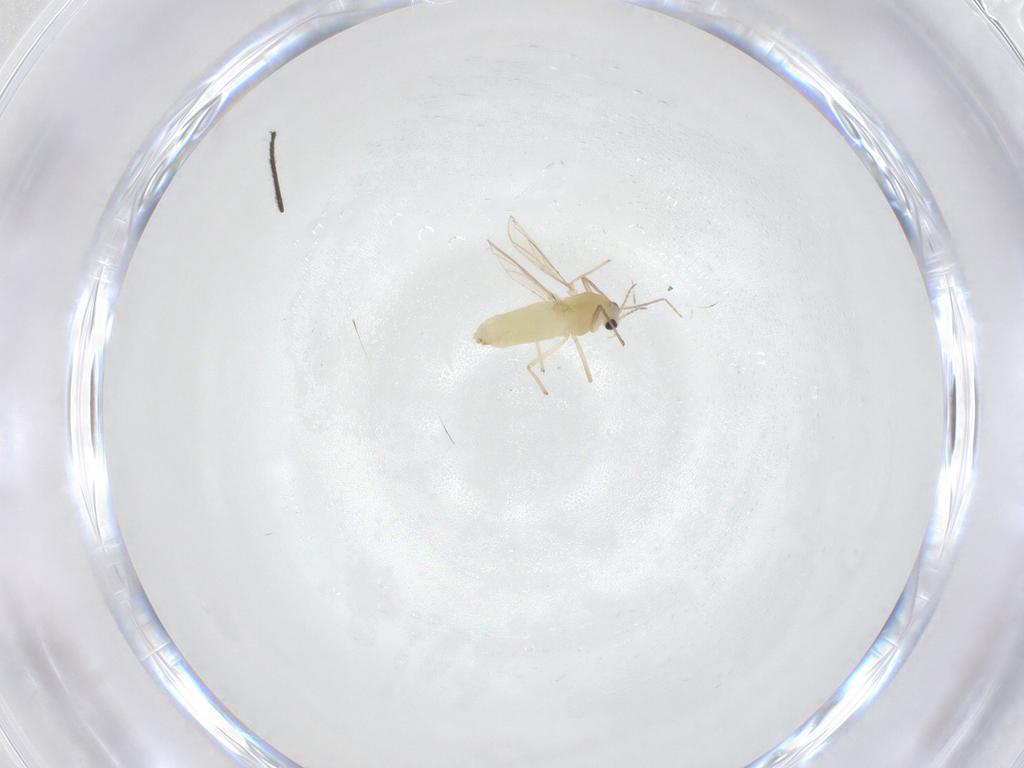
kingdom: Animalia
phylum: Arthropoda
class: Insecta
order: Diptera
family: Chironomidae
